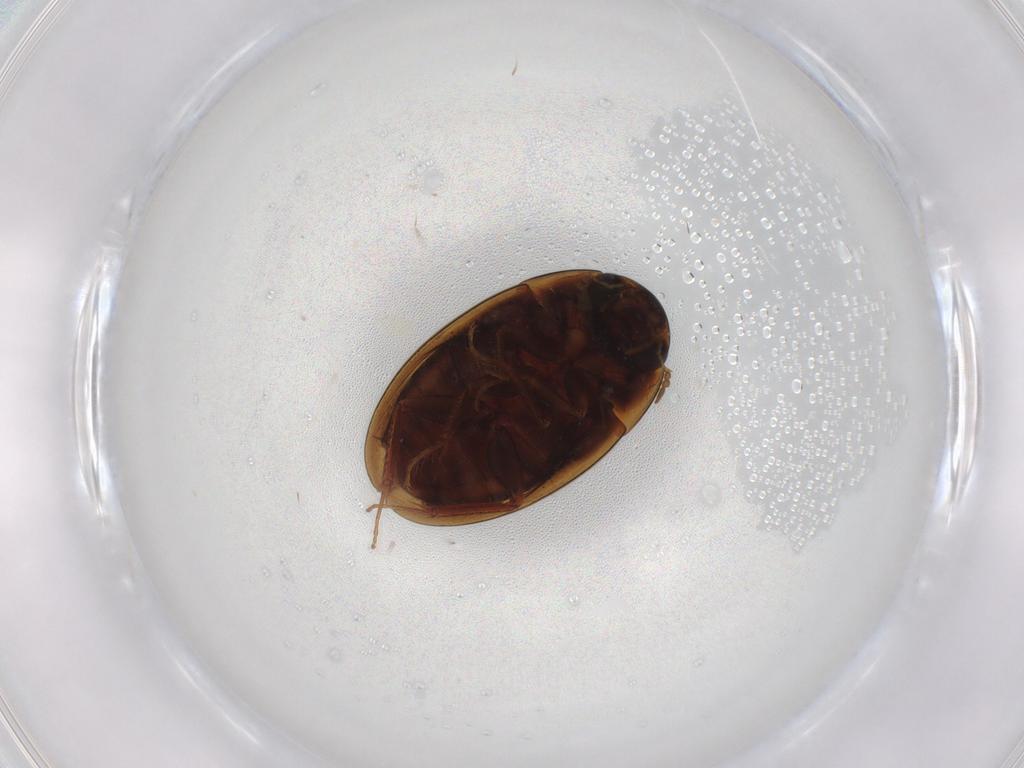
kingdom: Animalia
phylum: Arthropoda
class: Insecta
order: Coleoptera
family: Hydrophilidae
